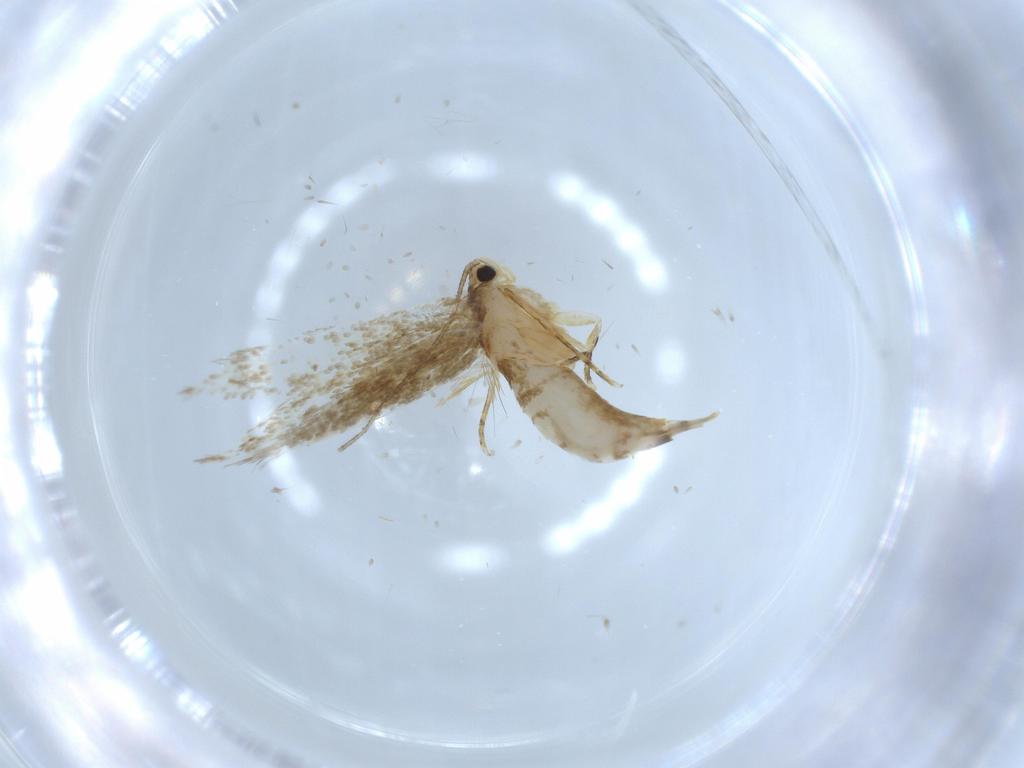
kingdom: Animalia
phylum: Arthropoda
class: Insecta
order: Lepidoptera
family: Tineidae
